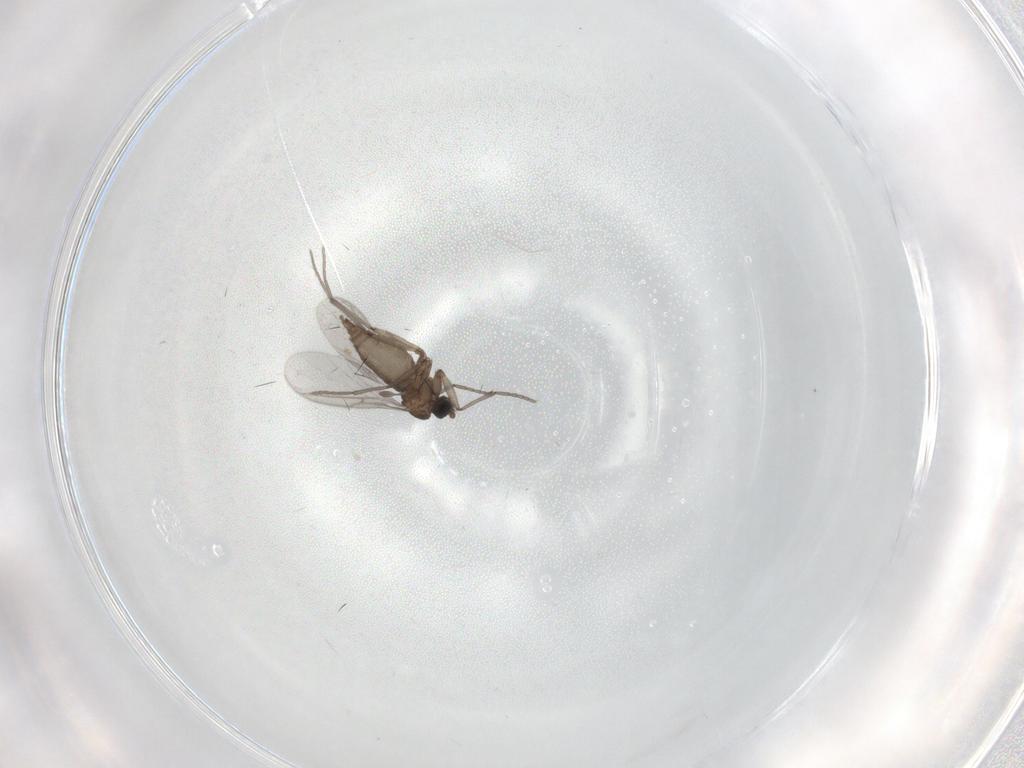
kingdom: Animalia
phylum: Arthropoda
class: Insecta
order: Diptera
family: Sciaridae
